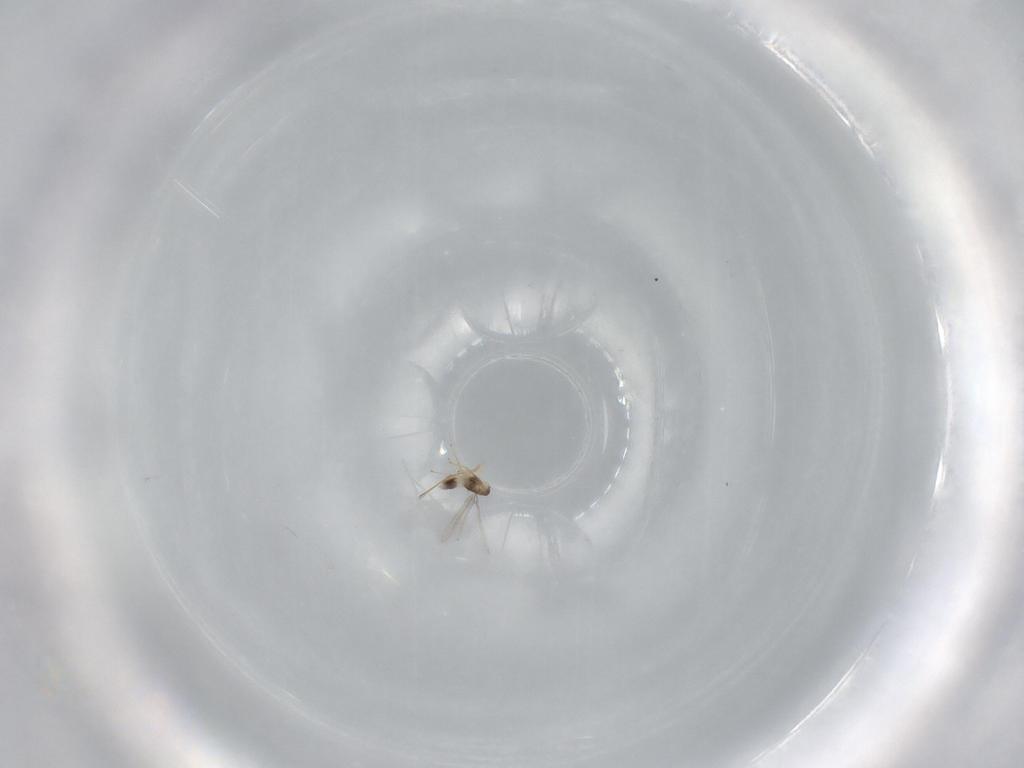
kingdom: Animalia
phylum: Arthropoda
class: Insecta
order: Hymenoptera
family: Mymaridae
